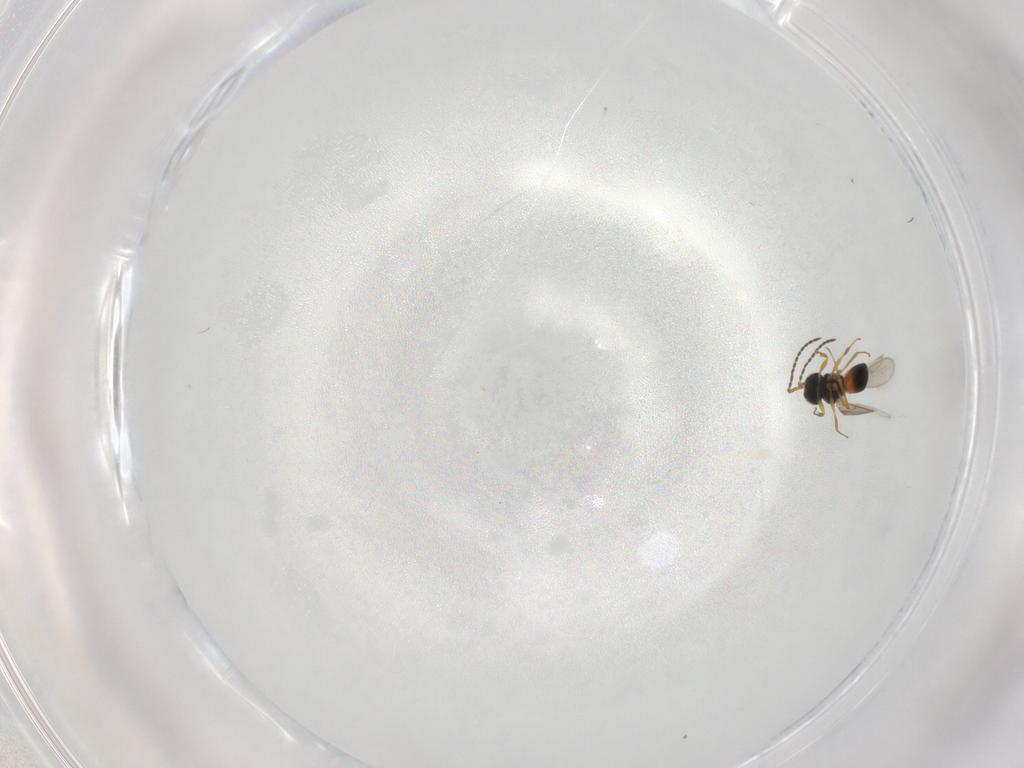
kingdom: Animalia
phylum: Arthropoda
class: Insecta
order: Hymenoptera
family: Scelionidae
